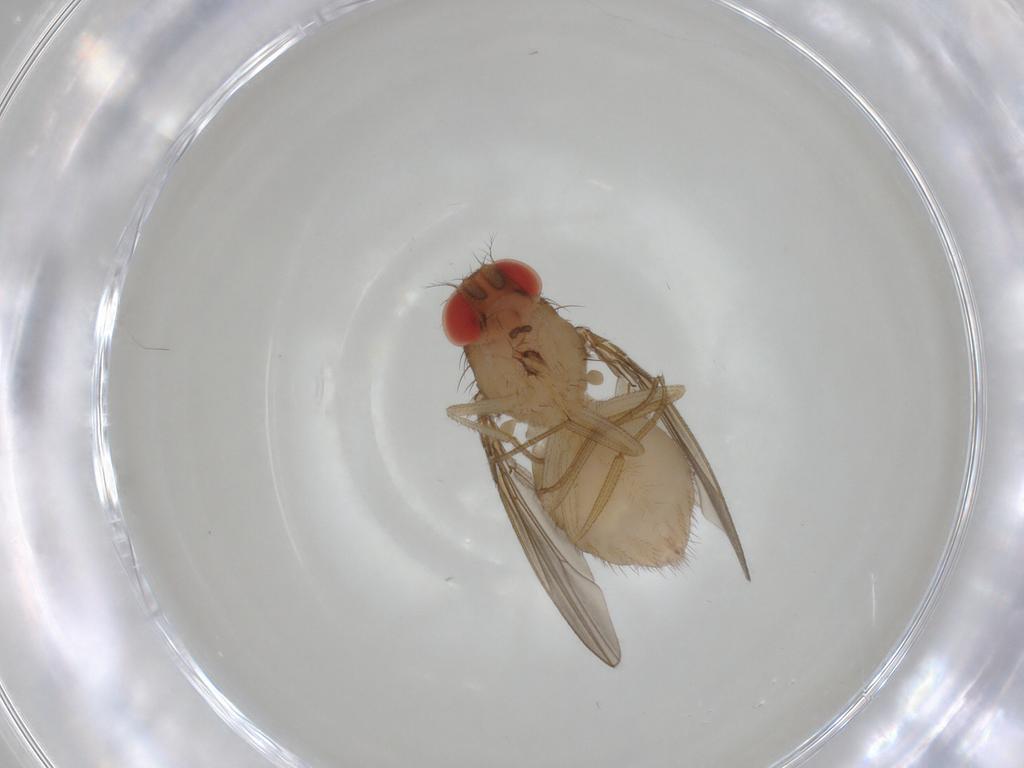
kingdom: Animalia
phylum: Arthropoda
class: Insecta
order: Diptera
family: Drosophilidae
